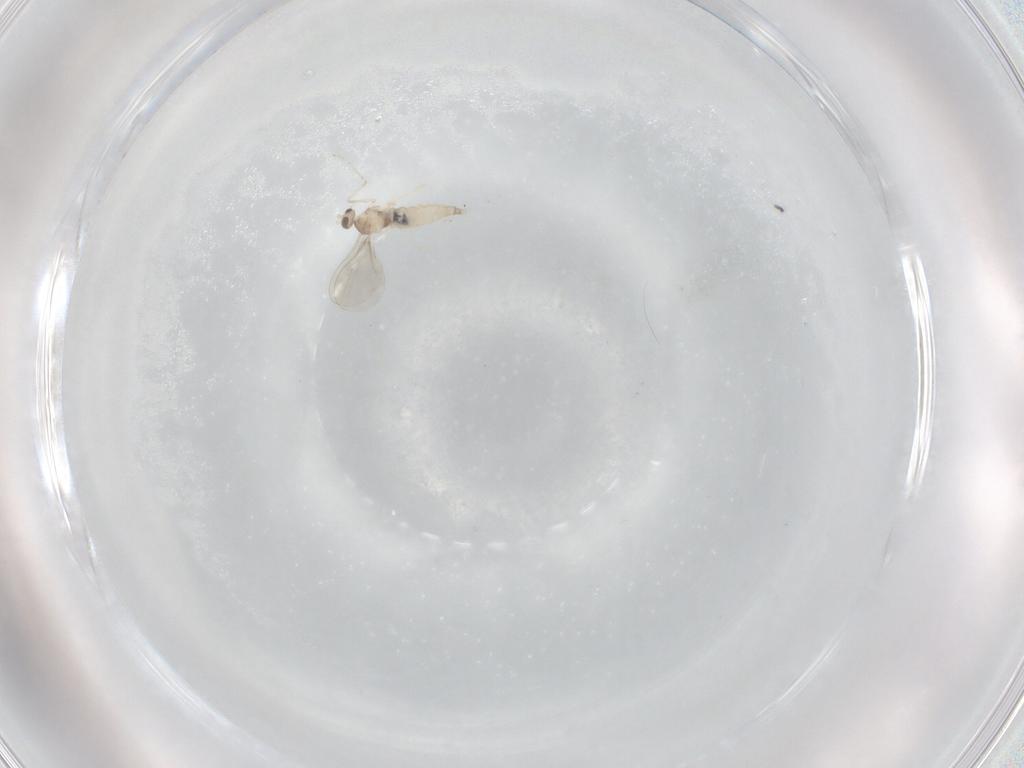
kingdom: Animalia
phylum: Arthropoda
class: Insecta
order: Diptera
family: Cecidomyiidae
